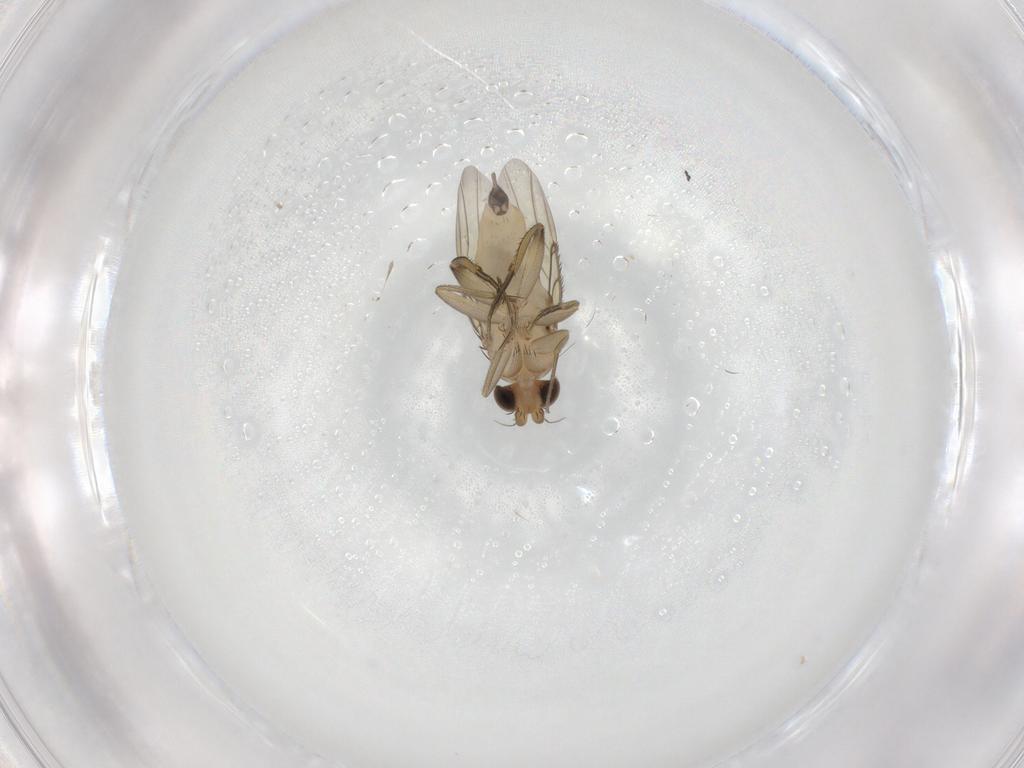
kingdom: Animalia
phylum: Arthropoda
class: Insecta
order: Diptera
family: Phoridae
